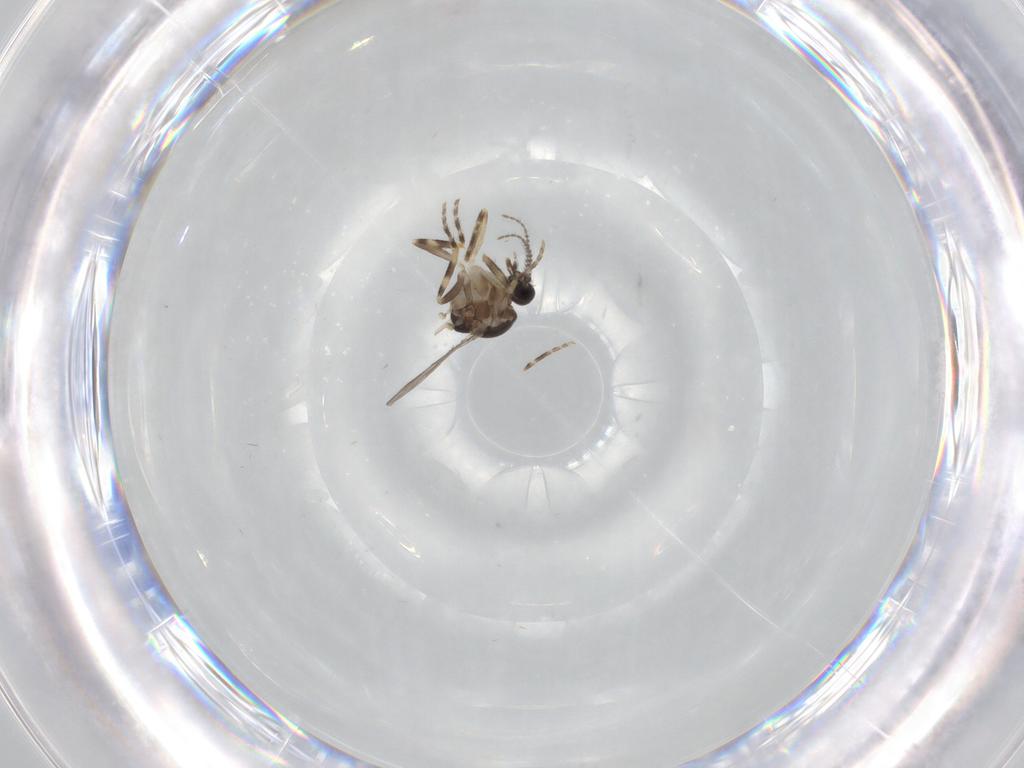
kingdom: Animalia
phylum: Arthropoda
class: Insecta
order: Diptera
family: Ceratopogonidae
